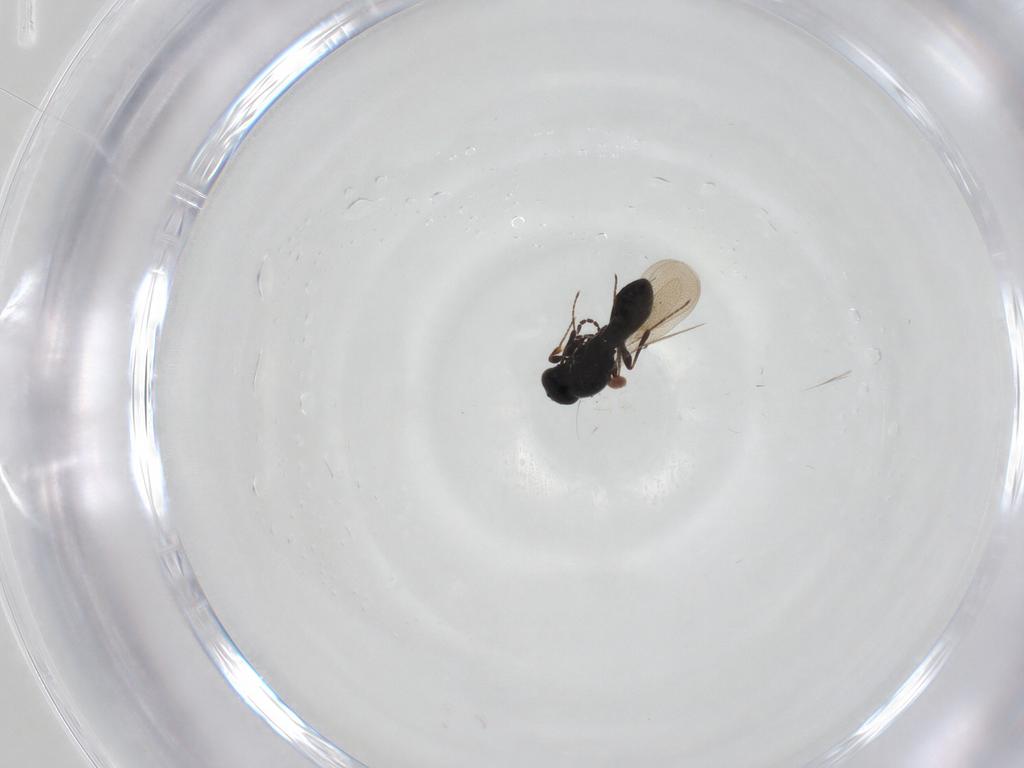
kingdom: Animalia
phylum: Arthropoda
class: Insecta
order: Hymenoptera
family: Platygastridae
